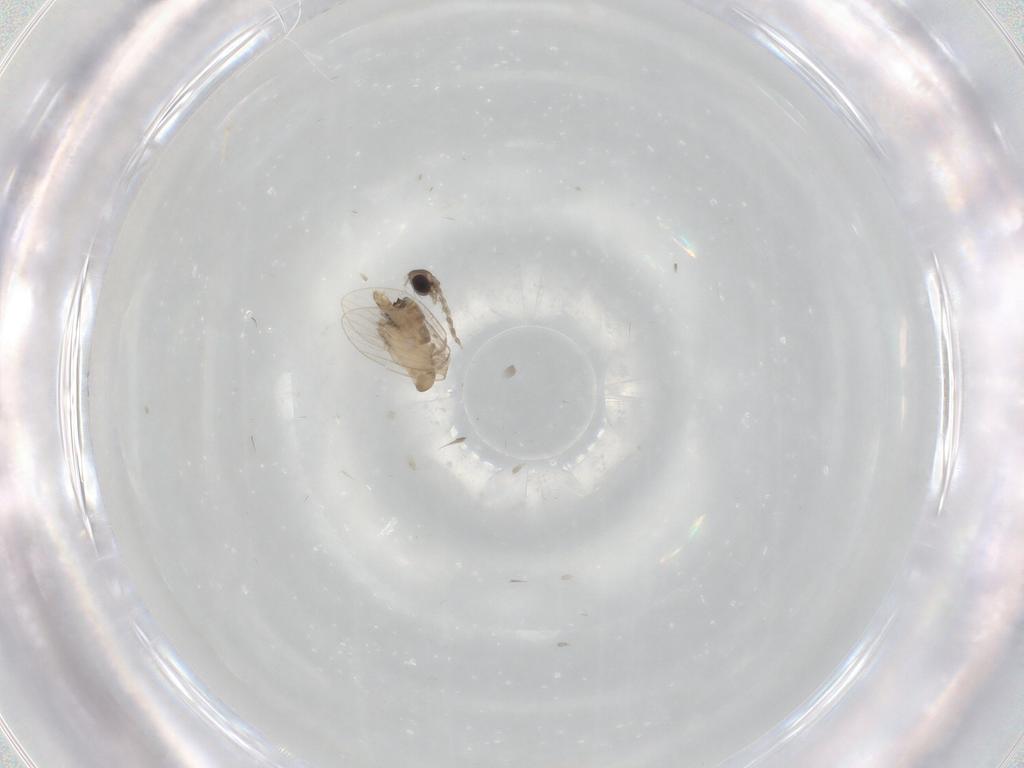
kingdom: Animalia
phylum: Arthropoda
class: Insecta
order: Diptera
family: Psychodidae
